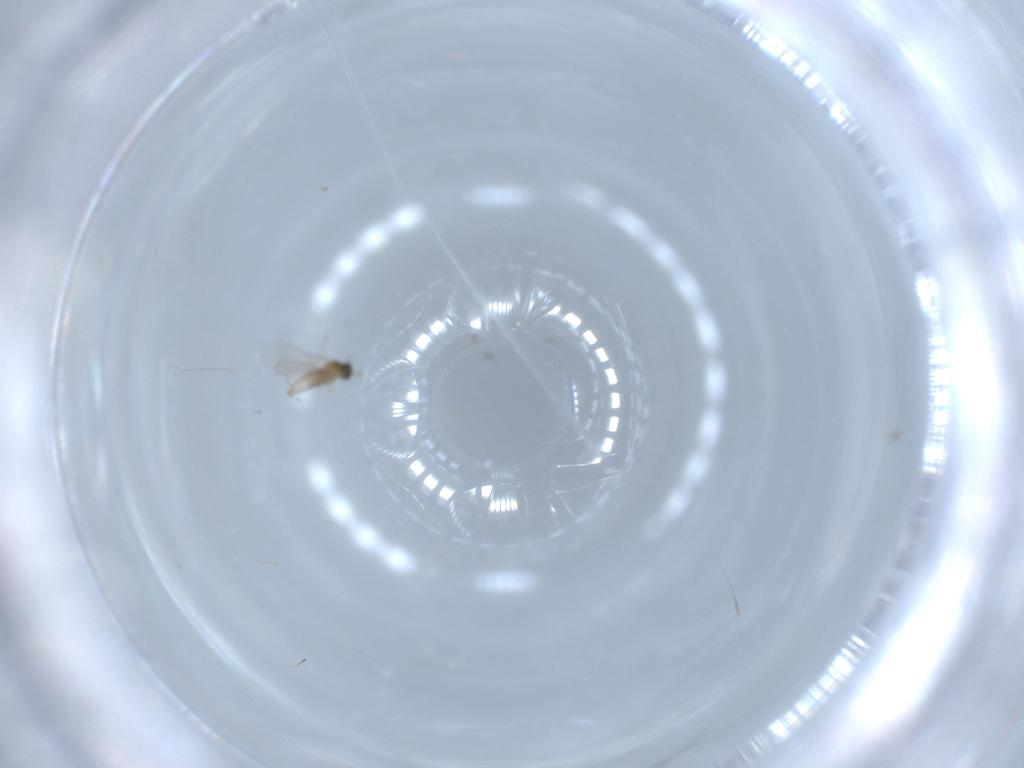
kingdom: Animalia
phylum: Arthropoda
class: Insecta
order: Diptera
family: Cecidomyiidae
